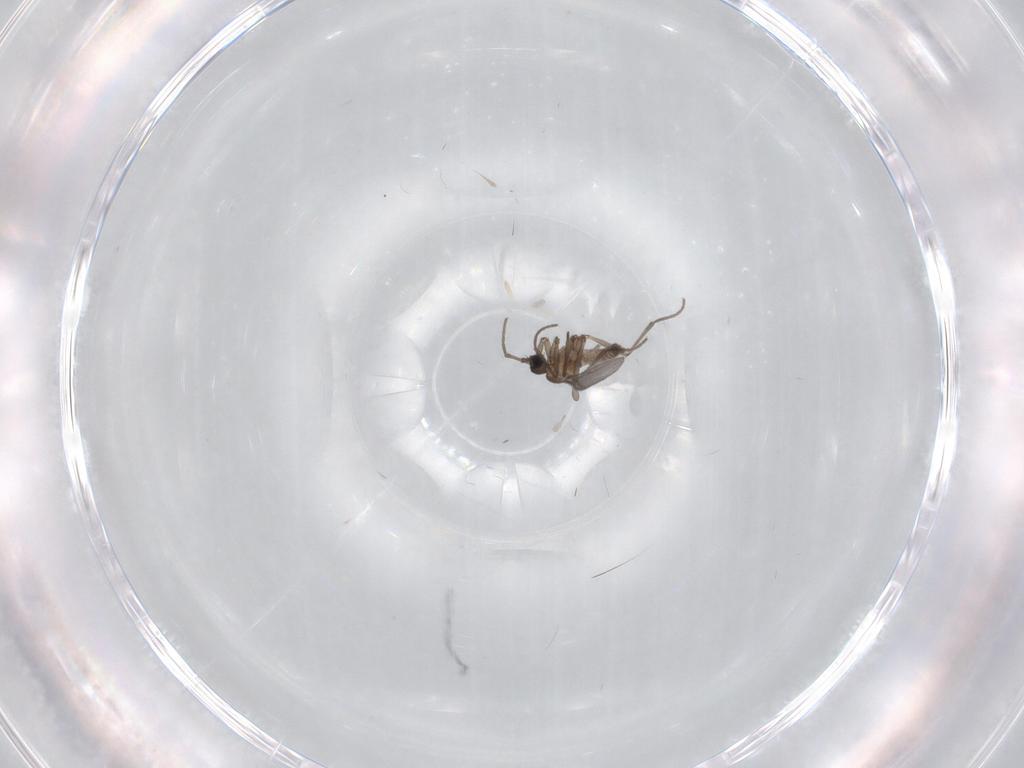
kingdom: Animalia
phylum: Arthropoda
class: Insecta
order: Diptera
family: Sciaridae
